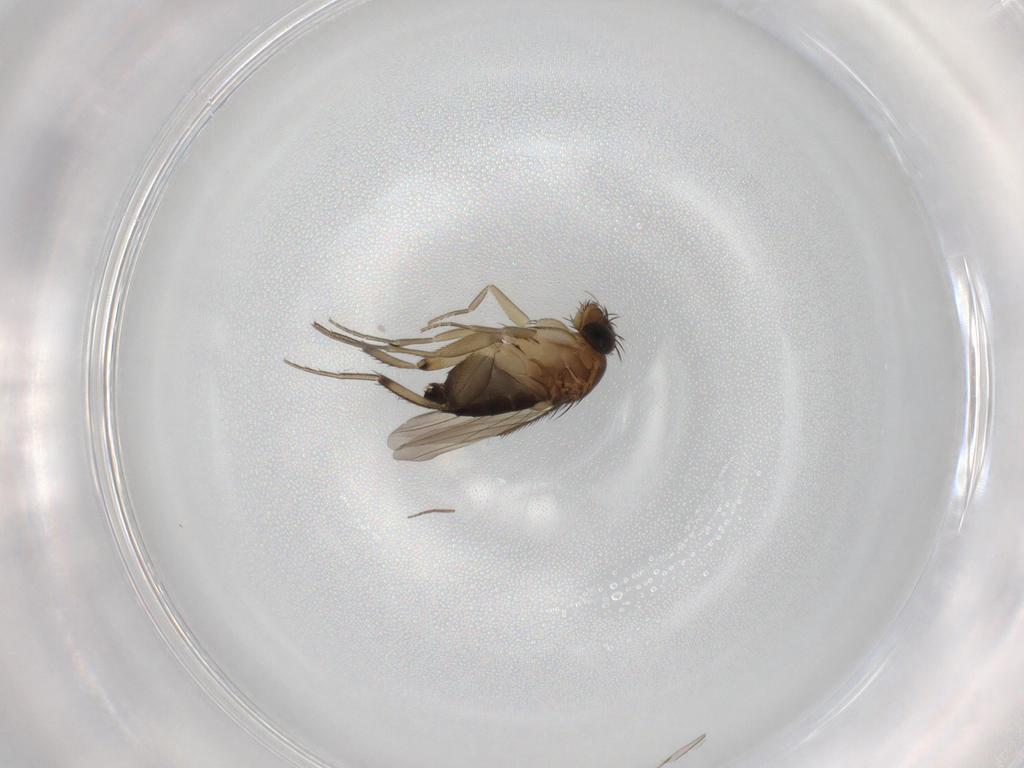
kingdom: Animalia
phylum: Arthropoda
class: Insecta
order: Diptera
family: Chironomidae
